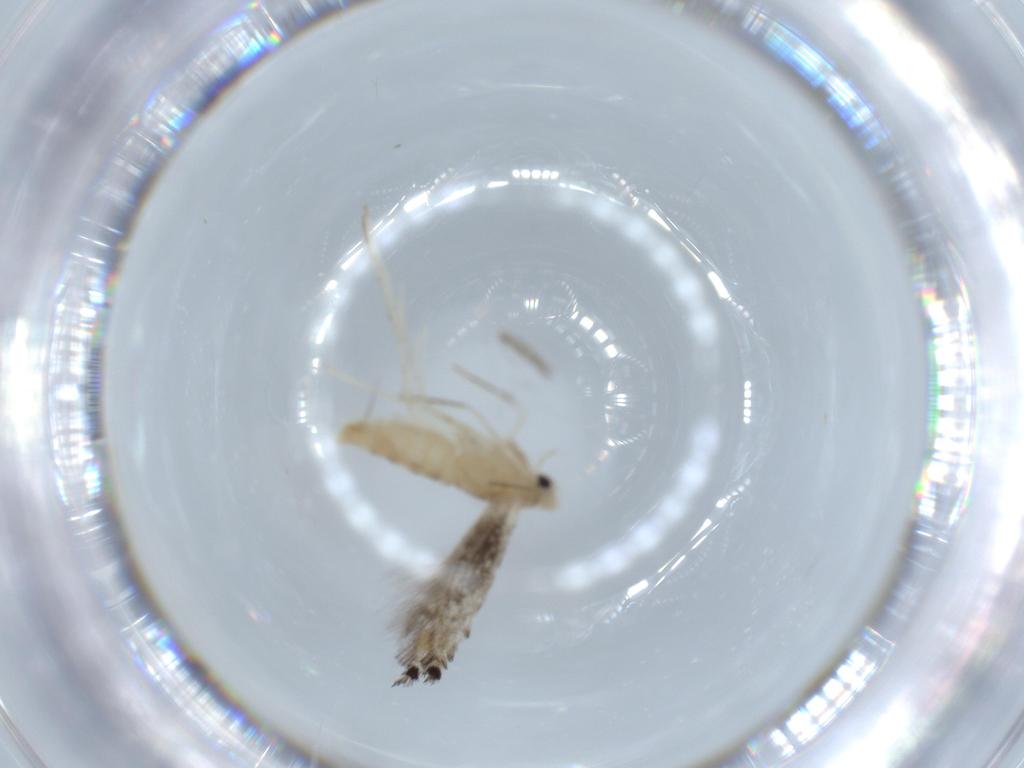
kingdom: Animalia
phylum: Arthropoda
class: Insecta
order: Lepidoptera
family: Gracillariidae
